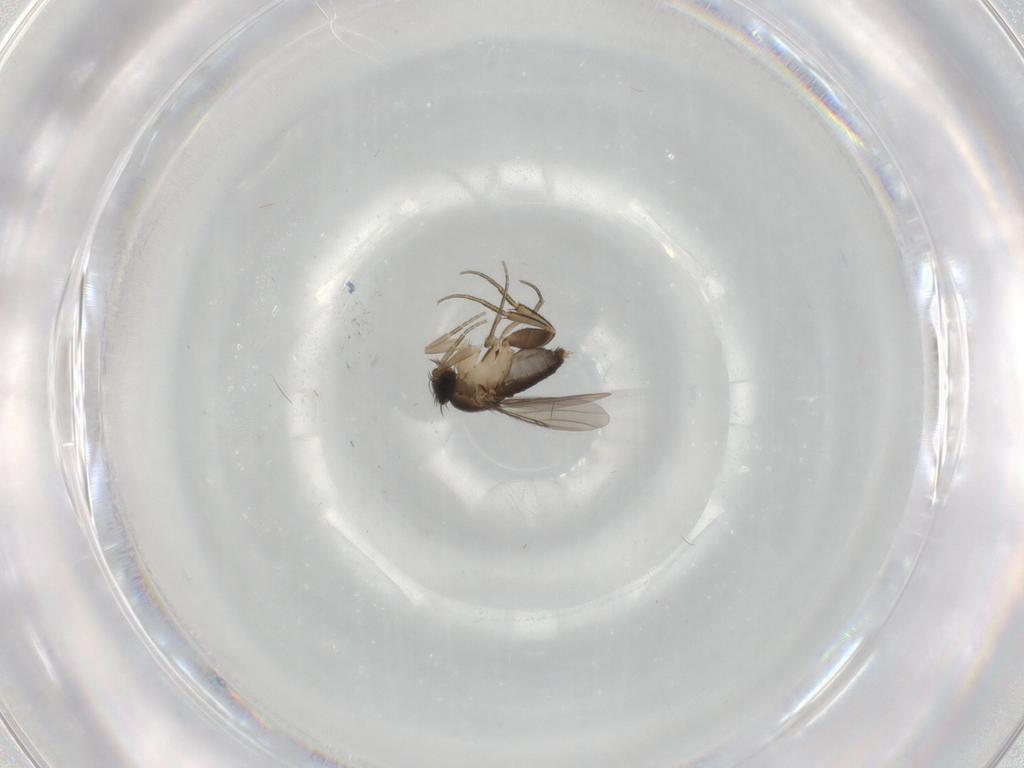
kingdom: Animalia
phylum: Arthropoda
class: Insecta
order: Diptera
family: Phoridae
